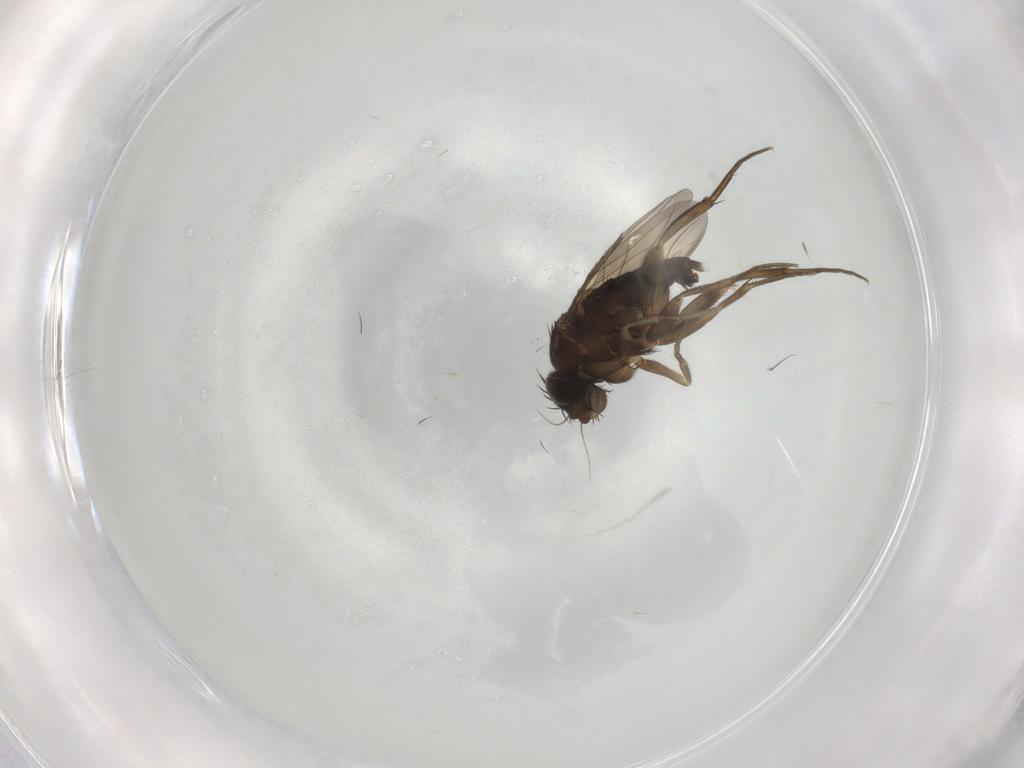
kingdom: Animalia
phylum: Arthropoda
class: Insecta
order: Diptera
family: Phoridae
